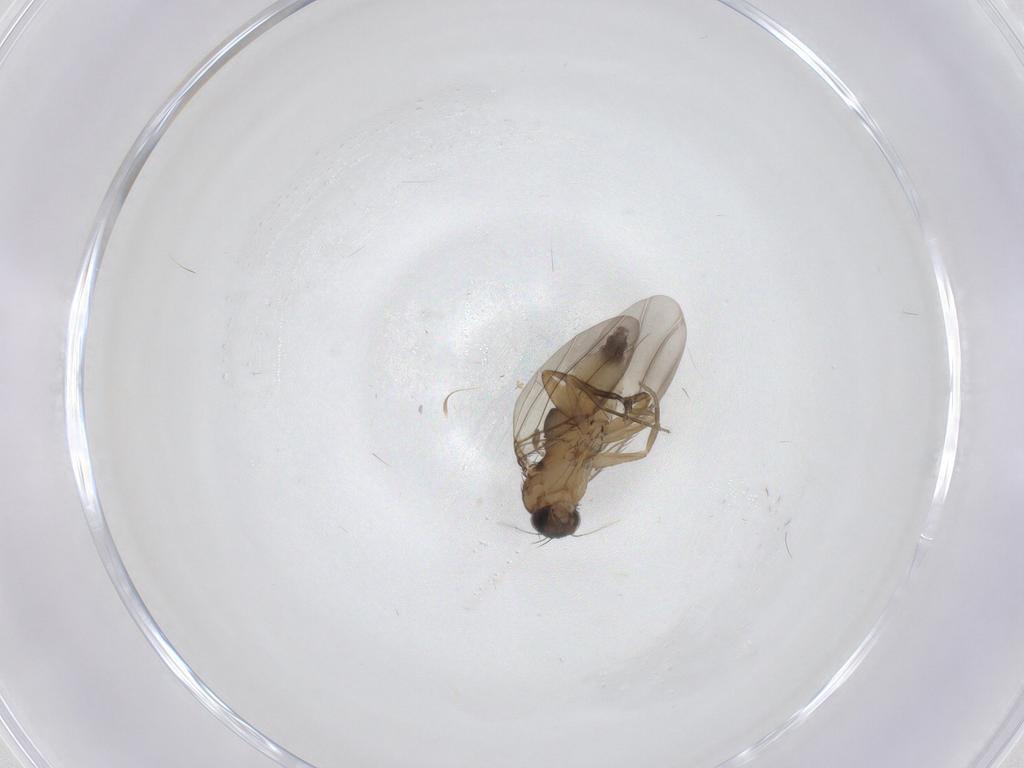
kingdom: Animalia
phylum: Arthropoda
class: Insecta
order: Diptera
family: Phoridae
